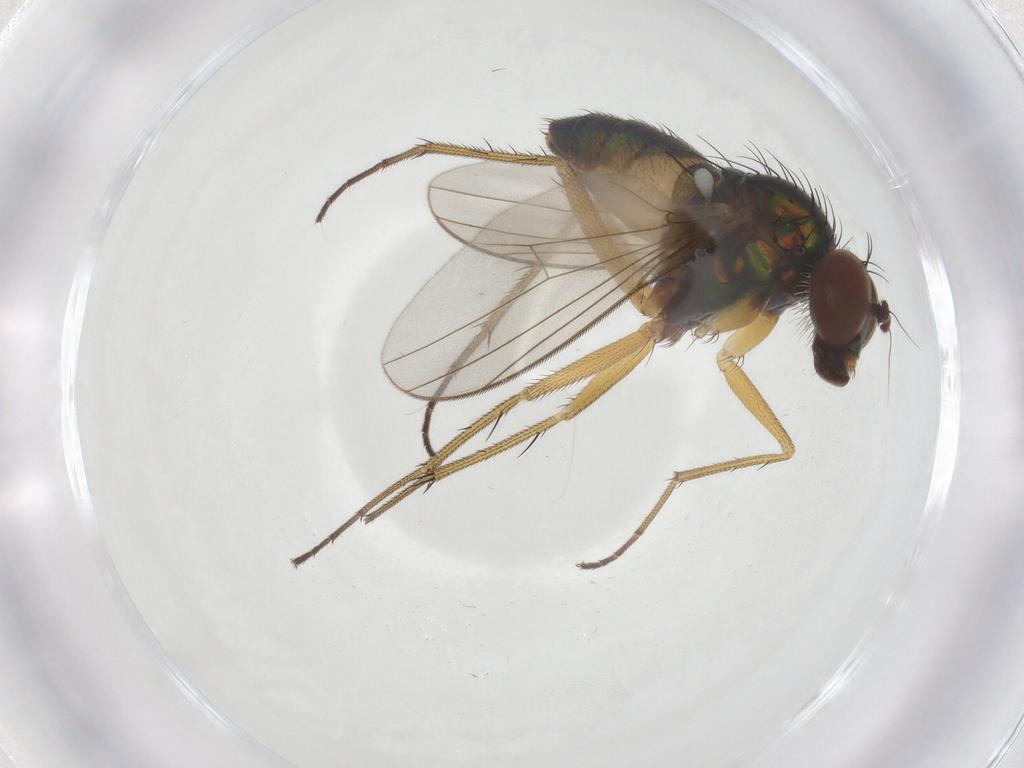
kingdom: Animalia
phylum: Arthropoda
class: Insecta
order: Diptera
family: Dolichopodidae
